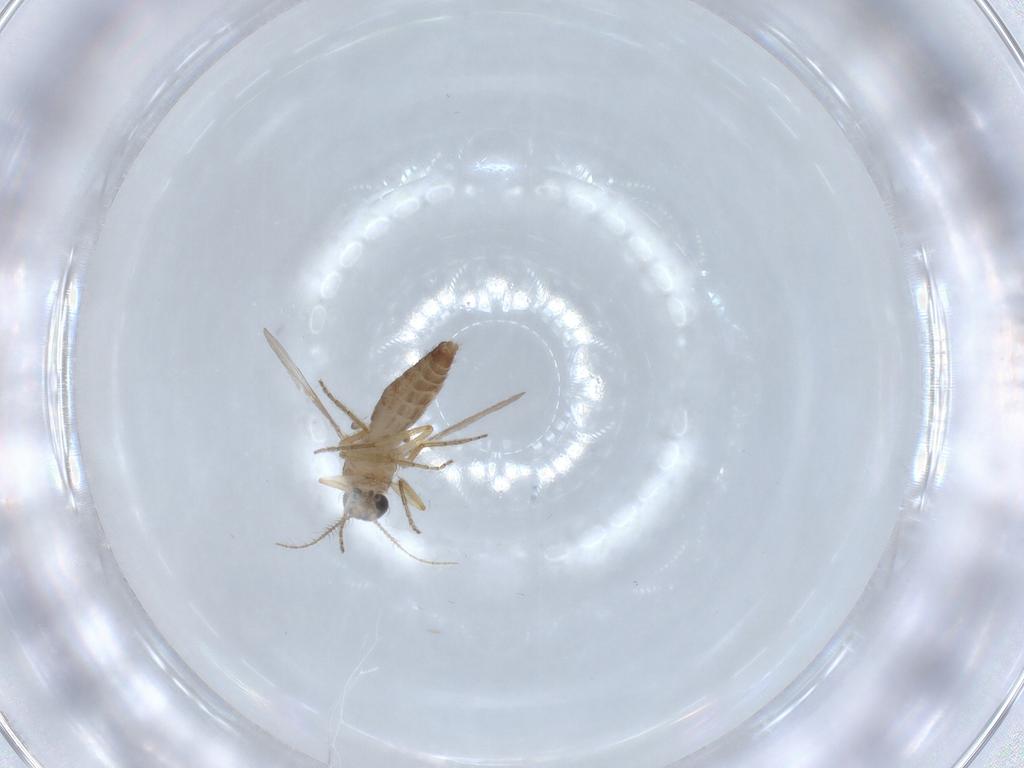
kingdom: Animalia
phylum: Arthropoda
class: Insecta
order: Diptera
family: Ceratopogonidae
